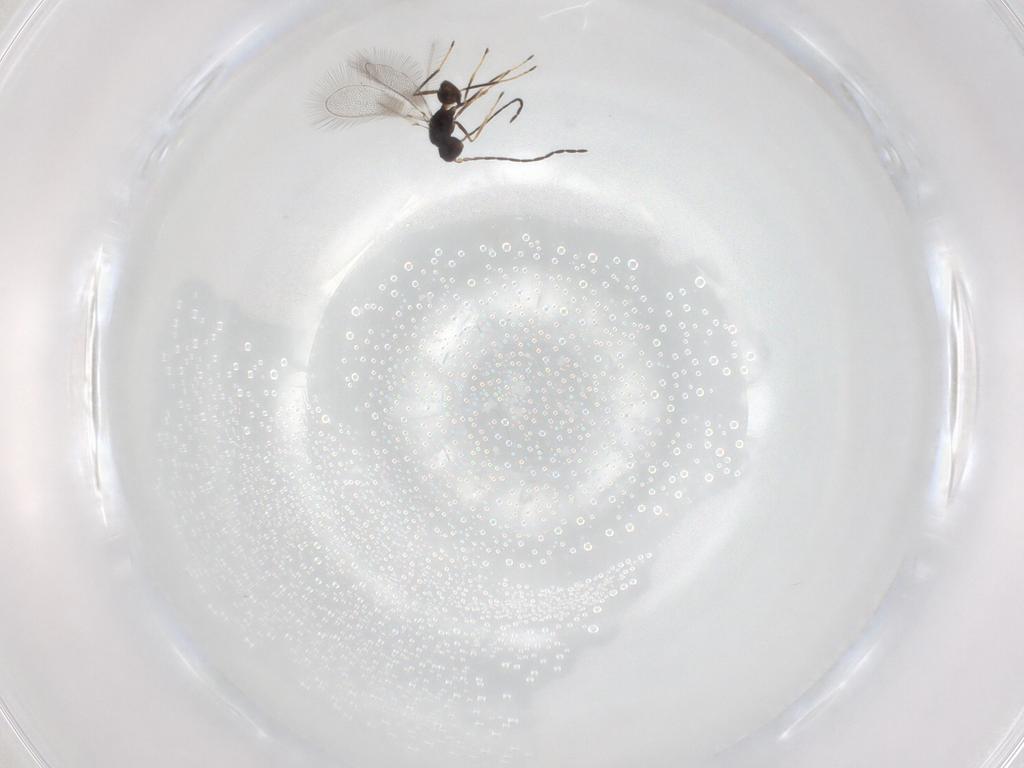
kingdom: Animalia
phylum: Arthropoda
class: Insecta
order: Hymenoptera
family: Mymaridae
